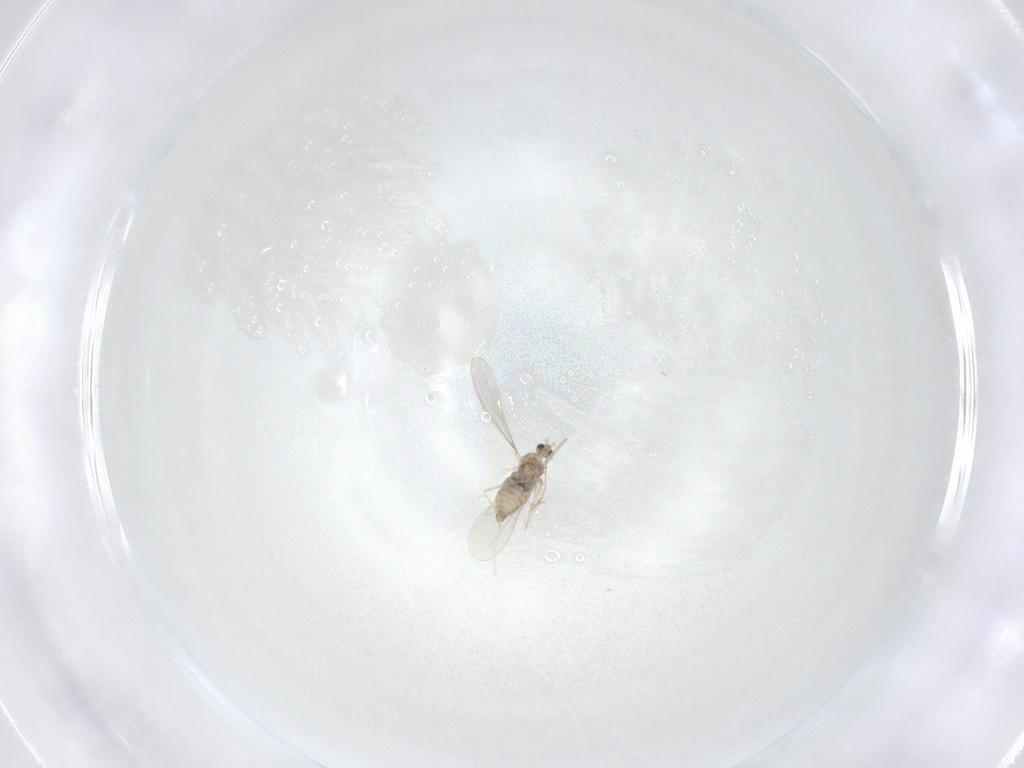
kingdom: Animalia
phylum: Arthropoda
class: Insecta
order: Diptera
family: Cecidomyiidae
